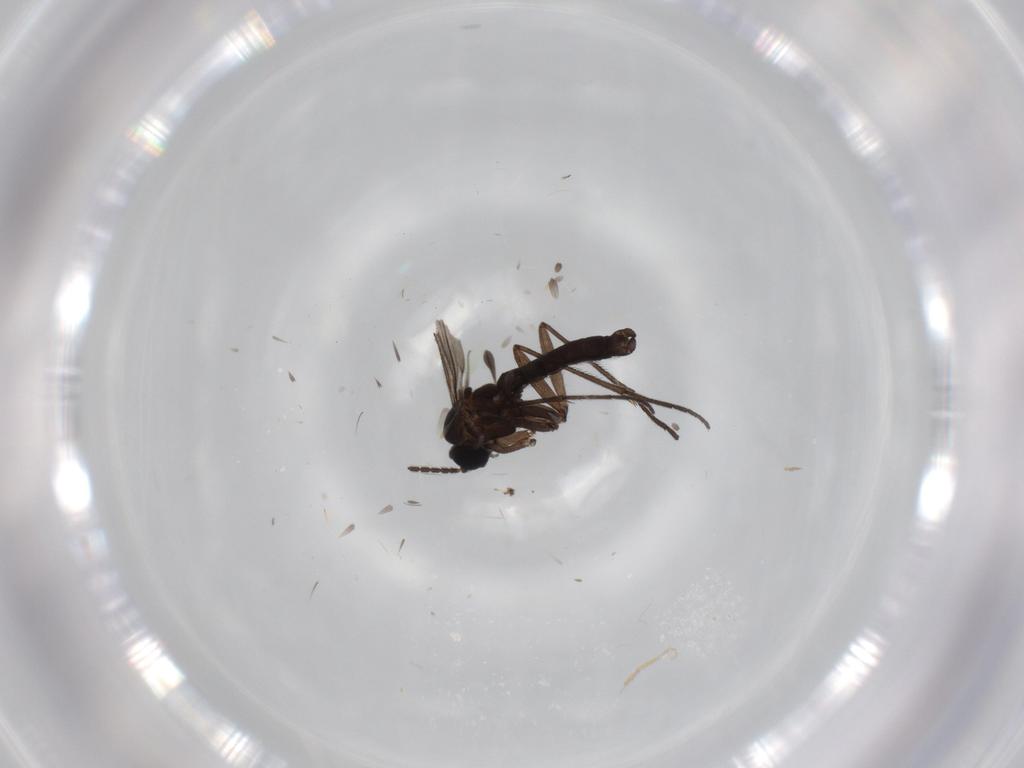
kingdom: Animalia
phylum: Arthropoda
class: Insecta
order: Diptera
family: Sciaridae
